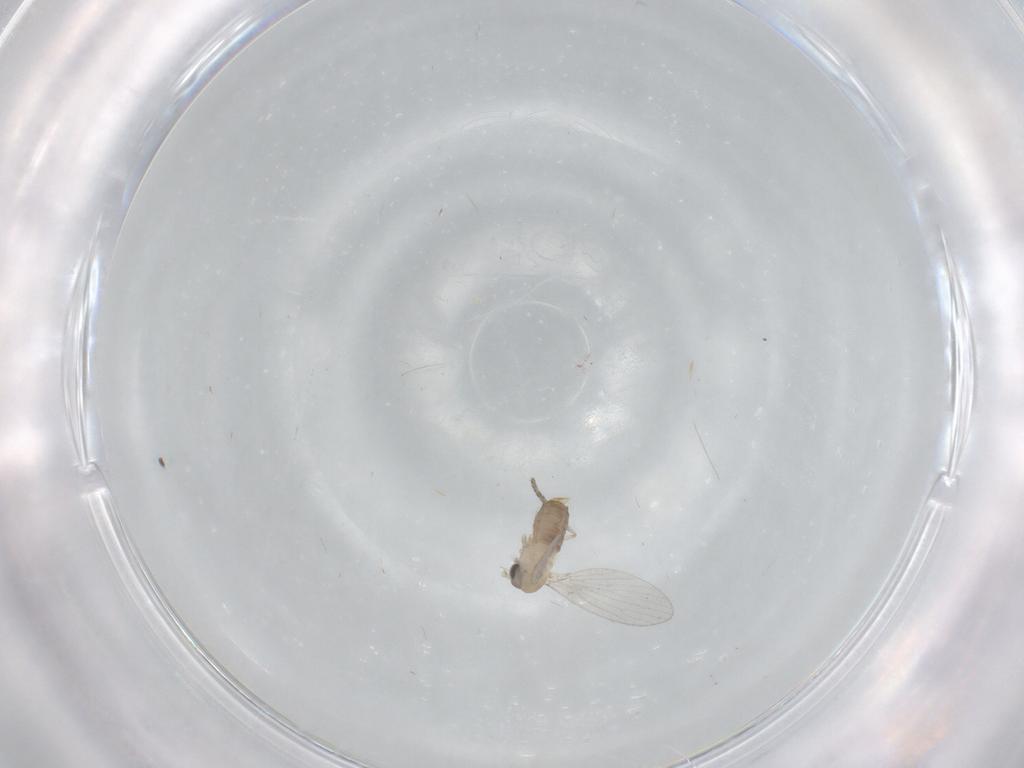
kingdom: Animalia
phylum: Arthropoda
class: Insecta
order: Diptera
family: Psychodidae
